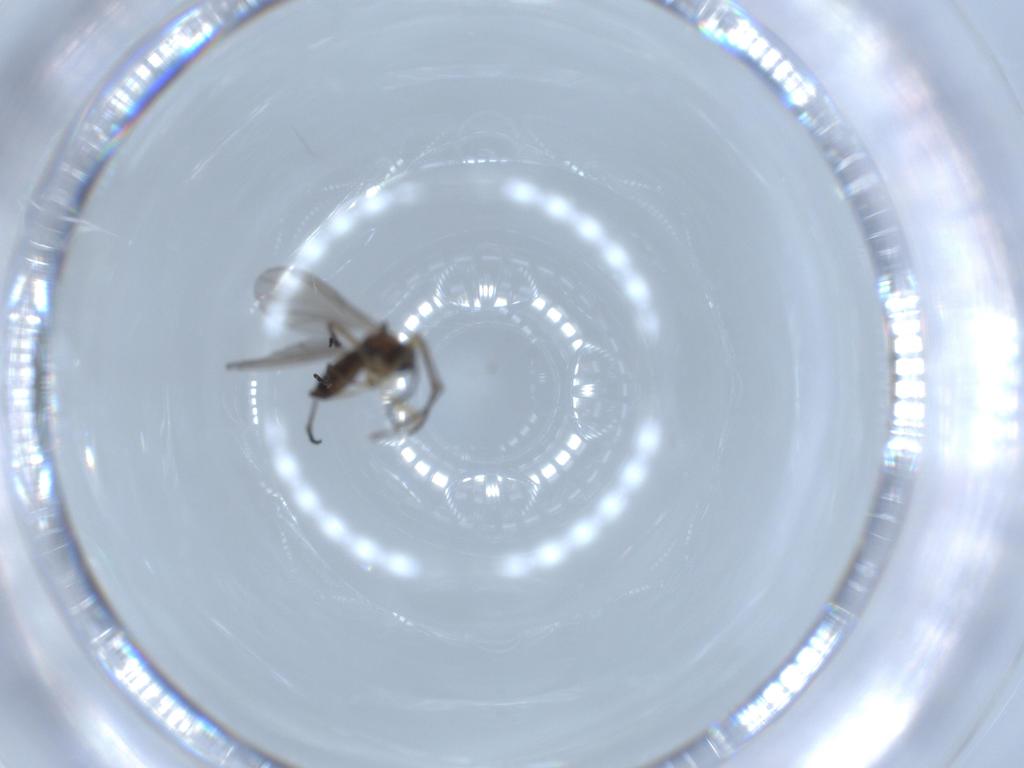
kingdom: Animalia
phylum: Arthropoda
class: Insecta
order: Diptera
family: Sciaridae
